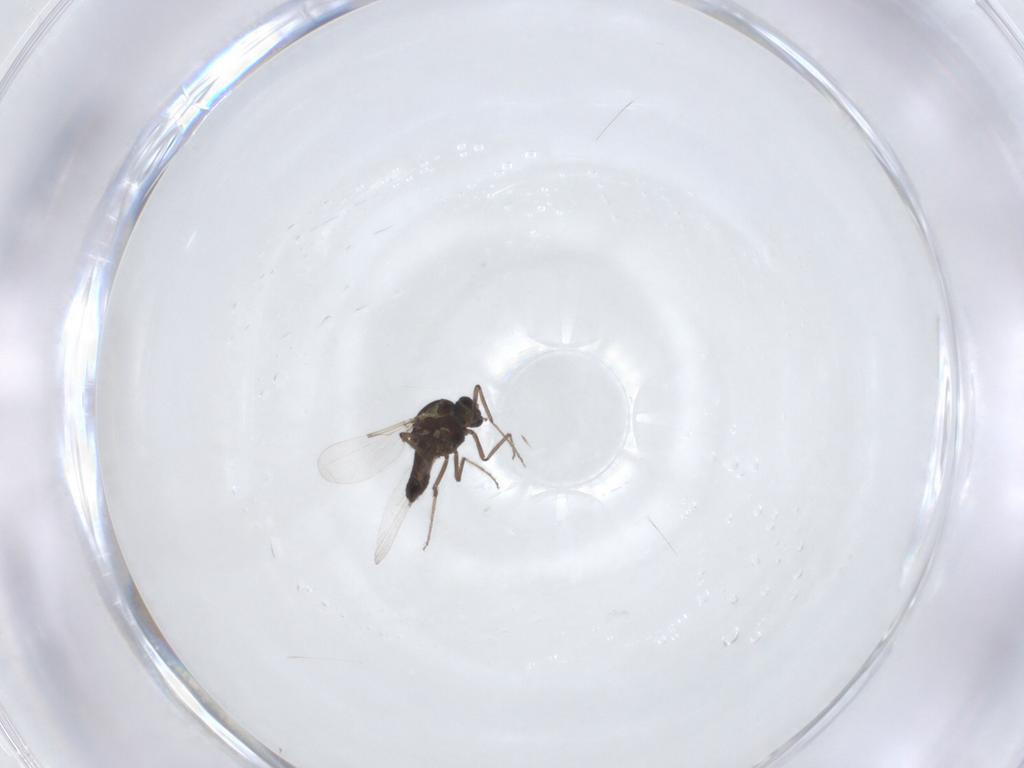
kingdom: Animalia
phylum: Arthropoda
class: Insecta
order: Diptera
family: Ceratopogonidae
